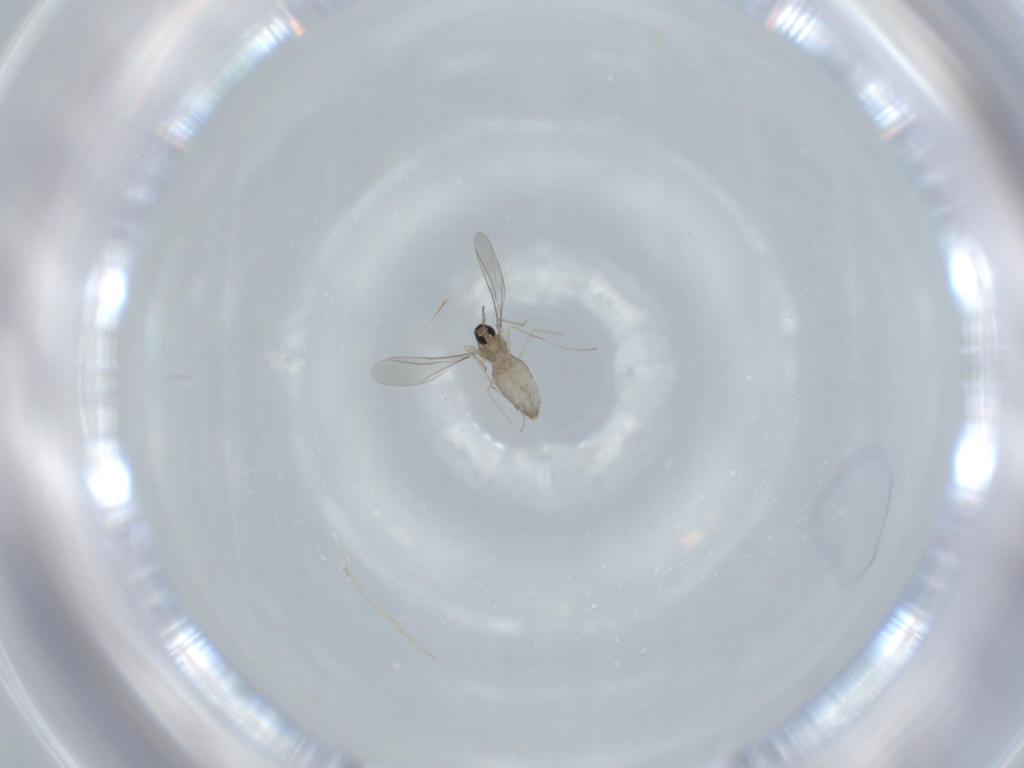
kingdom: Animalia
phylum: Arthropoda
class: Insecta
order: Diptera
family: Cecidomyiidae
